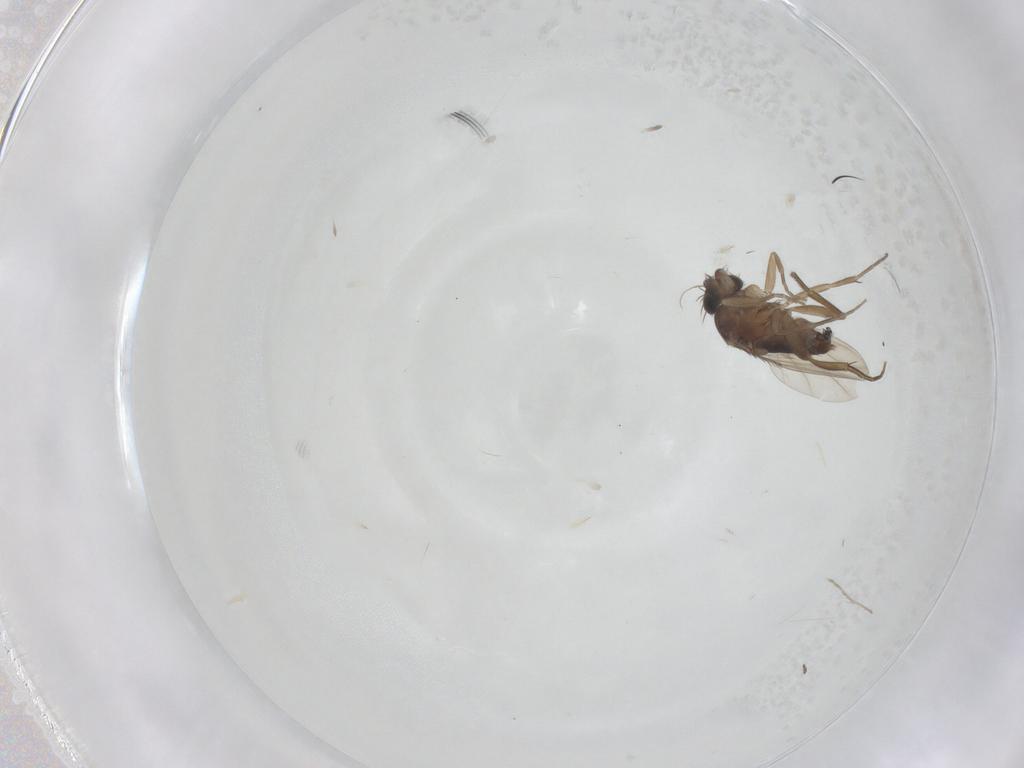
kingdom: Animalia
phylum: Arthropoda
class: Insecta
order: Diptera
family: Phoridae
